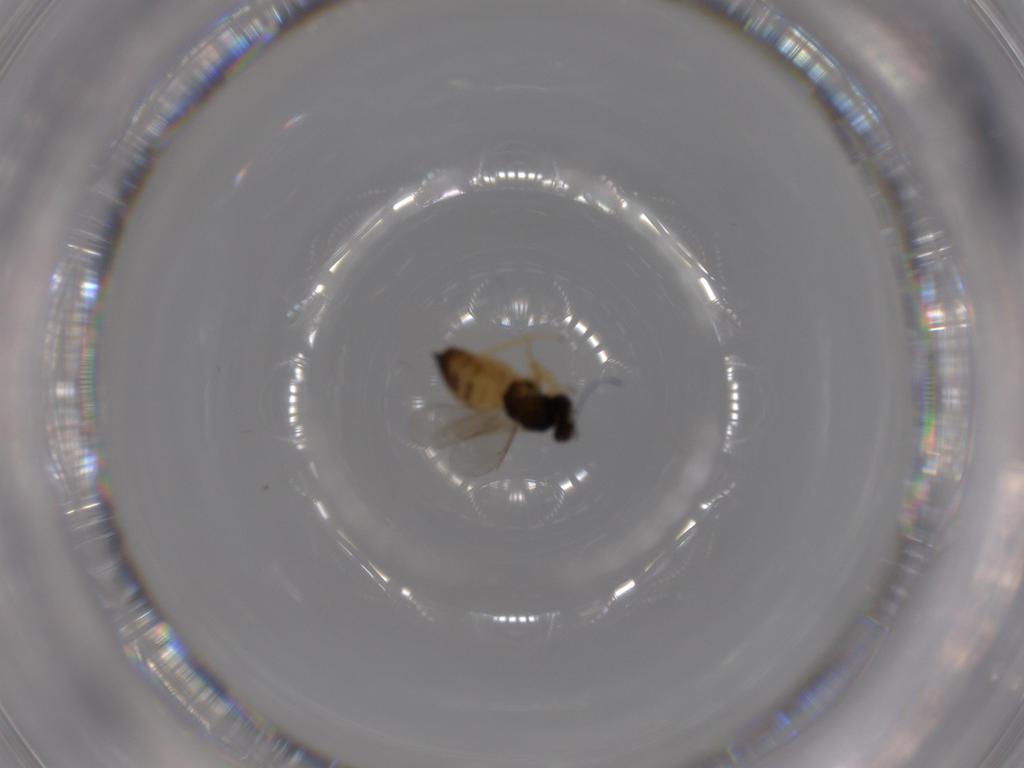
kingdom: Animalia
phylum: Arthropoda
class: Insecta
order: Hymenoptera
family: Eulophidae
